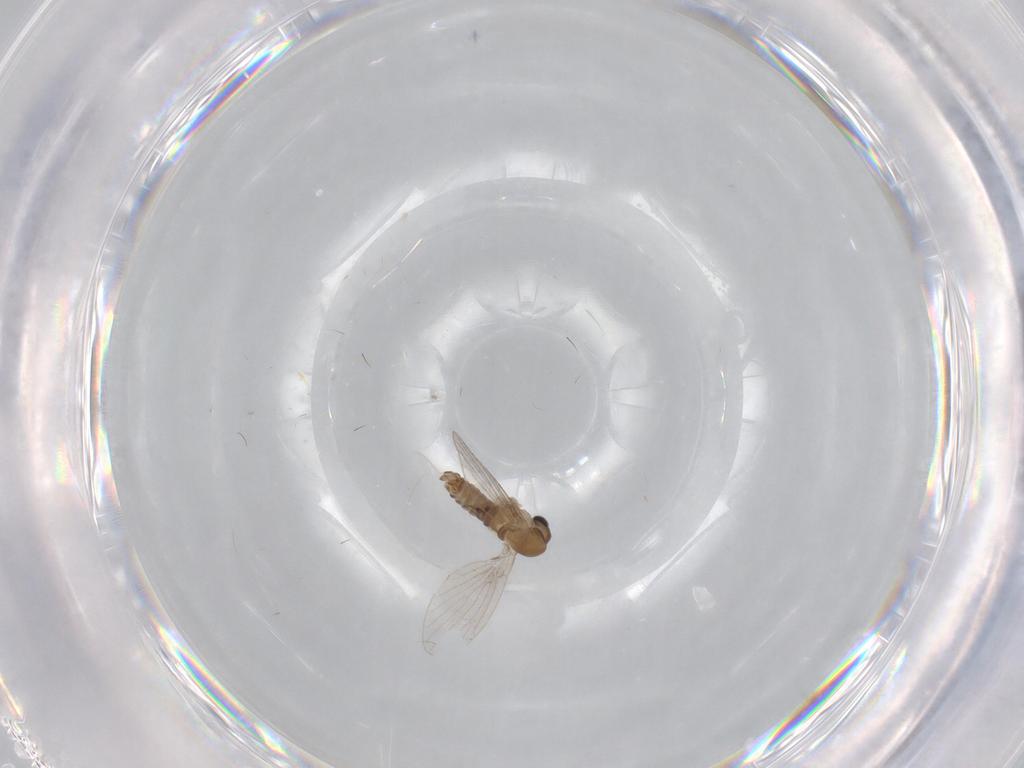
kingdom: Animalia
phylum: Arthropoda
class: Insecta
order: Diptera
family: Psychodidae
